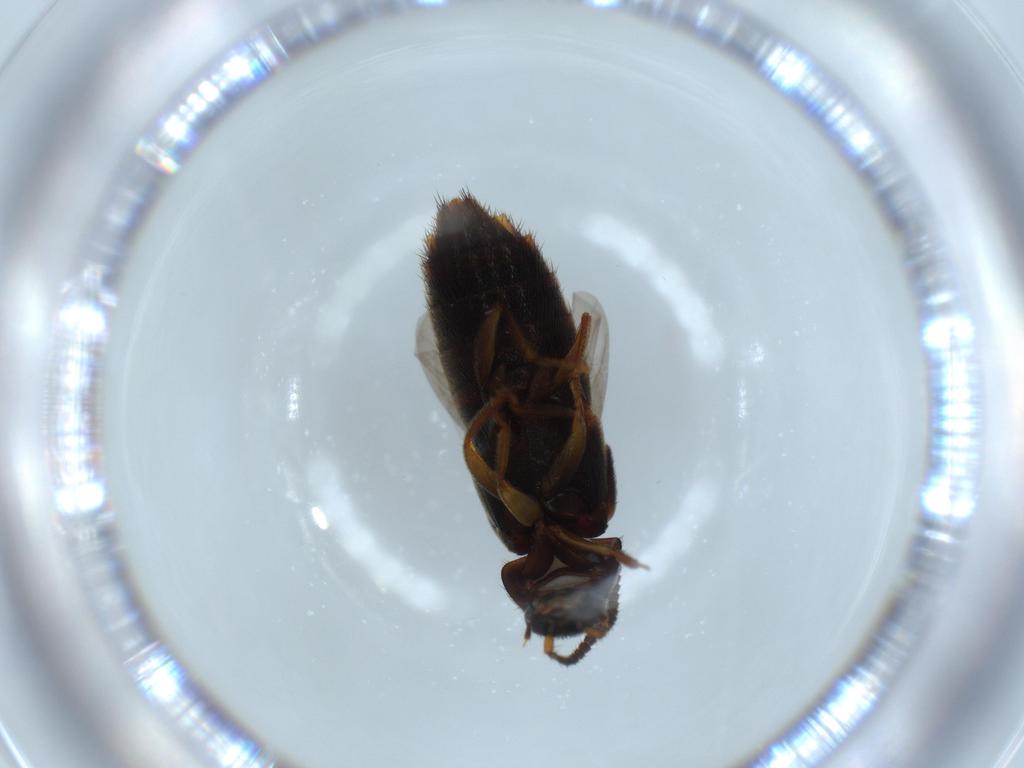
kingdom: Animalia
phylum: Arthropoda
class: Insecta
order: Coleoptera
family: Staphylinidae
